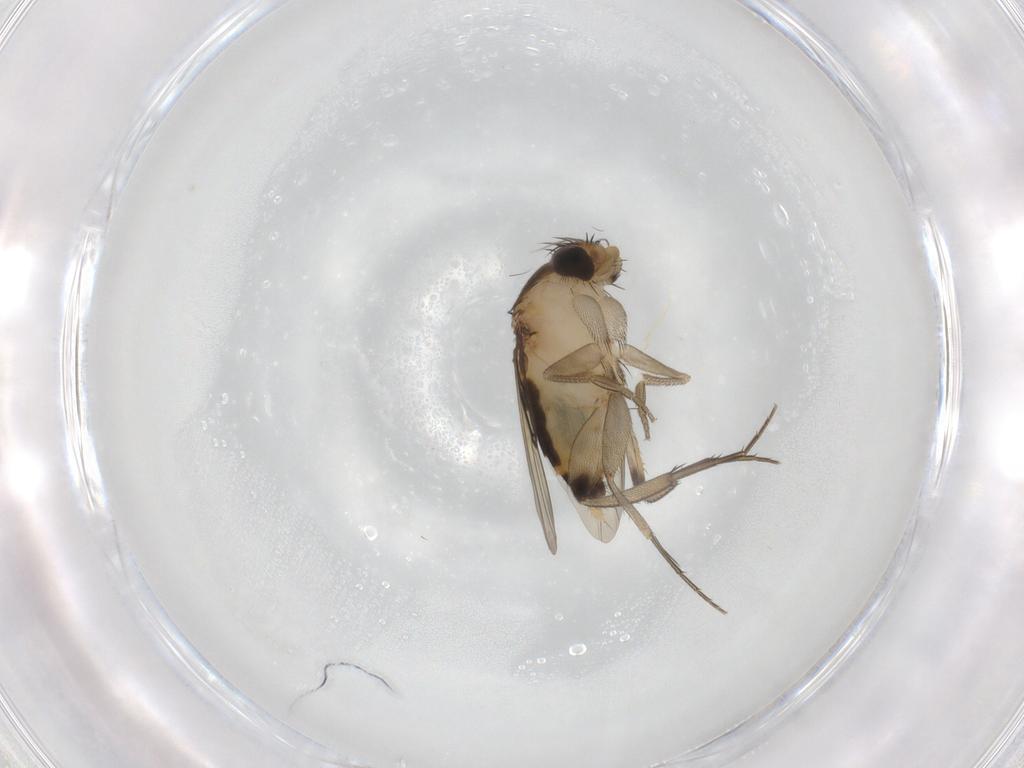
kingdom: Animalia
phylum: Arthropoda
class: Insecta
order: Diptera
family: Phoridae
